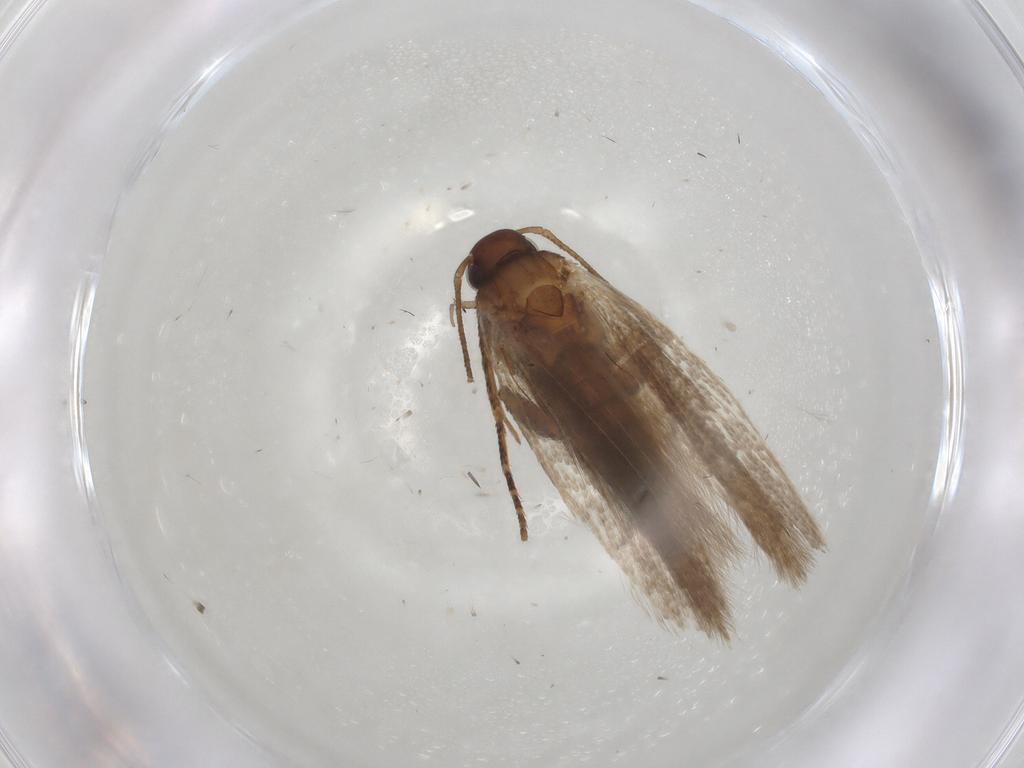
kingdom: Animalia
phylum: Arthropoda
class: Insecta
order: Lepidoptera
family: Gelechiidae
